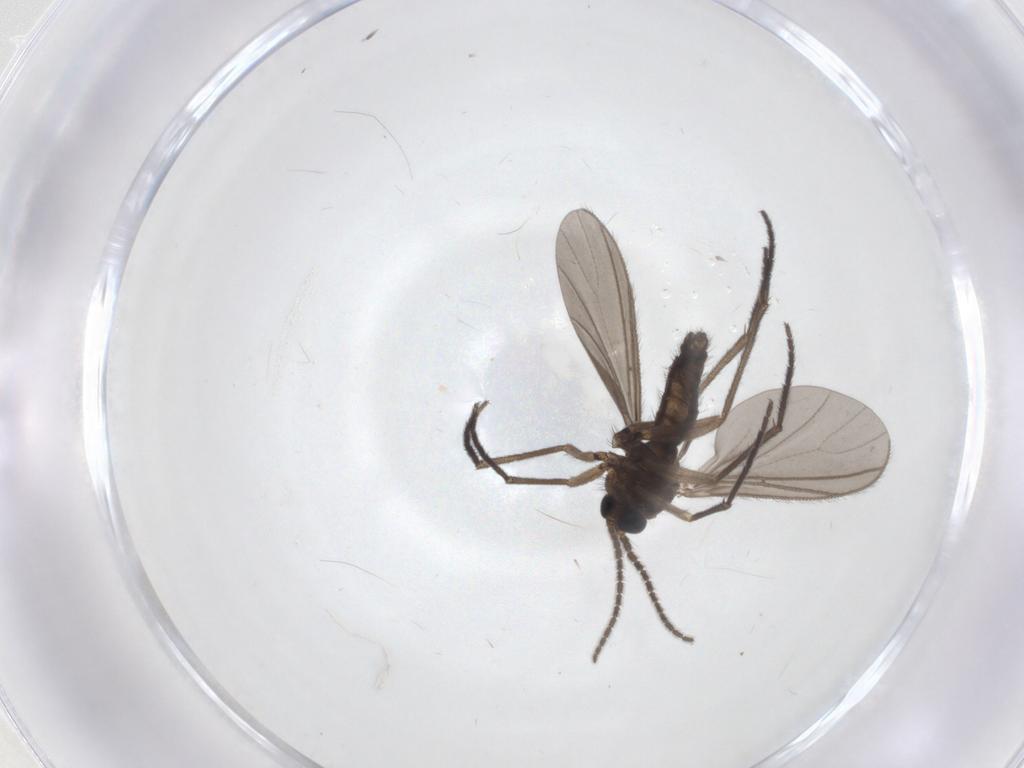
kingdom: Animalia
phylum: Arthropoda
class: Insecta
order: Diptera
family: Sciaridae
